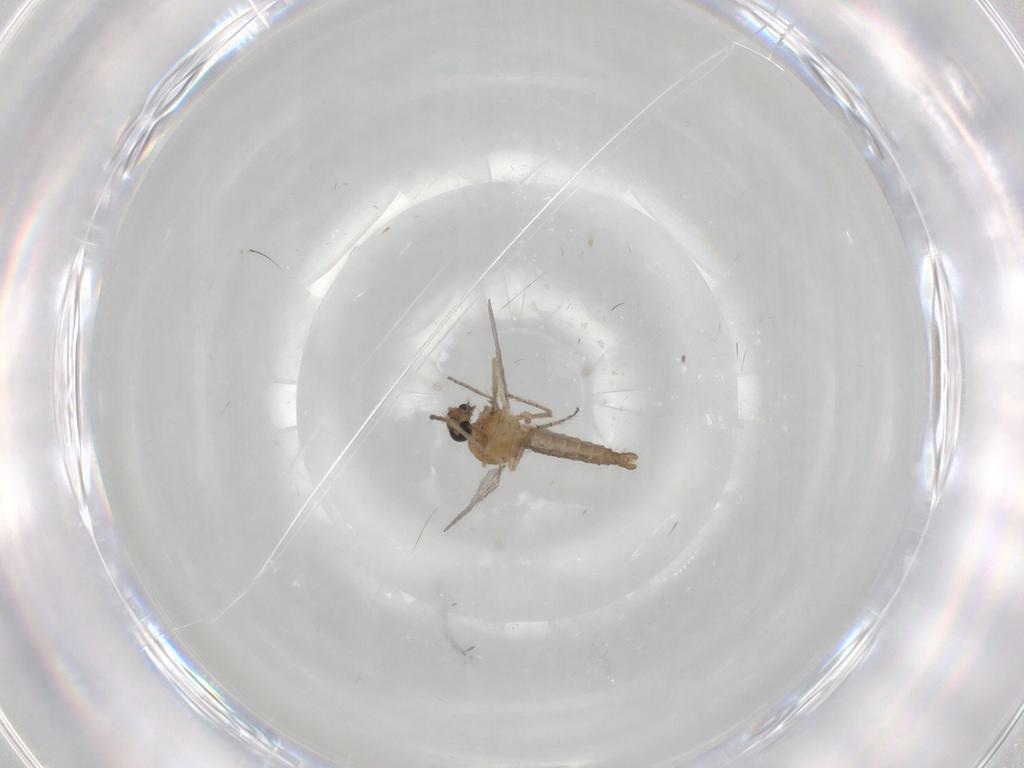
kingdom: Animalia
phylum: Arthropoda
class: Insecta
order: Diptera
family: Ceratopogonidae
